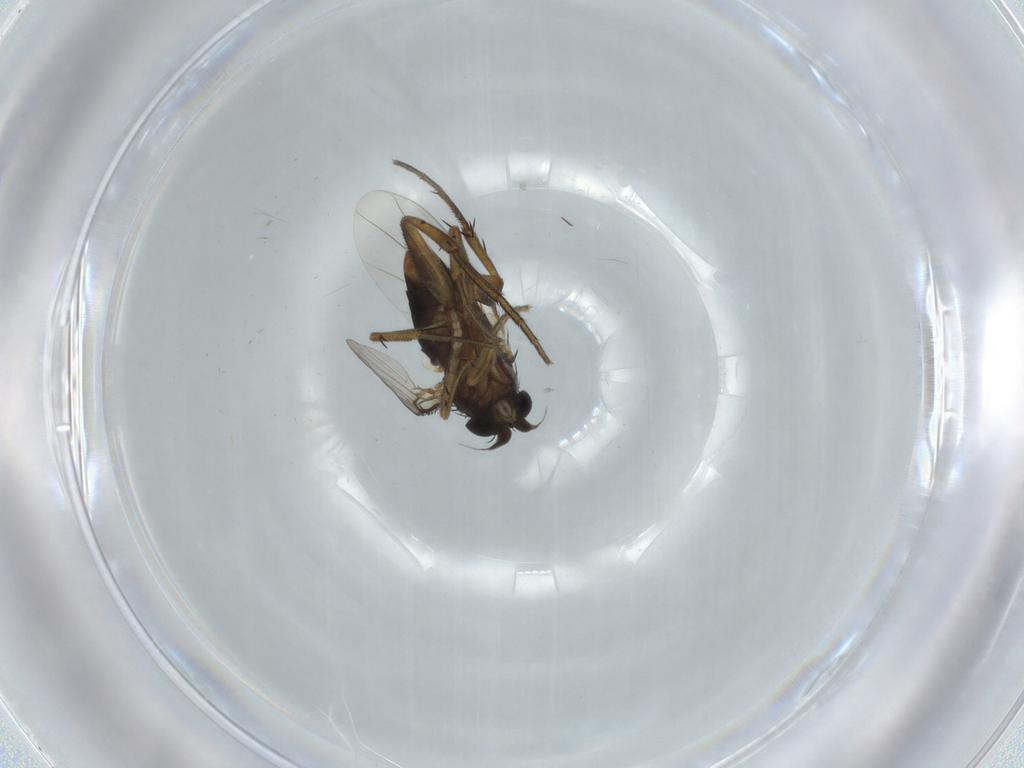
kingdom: Animalia
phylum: Arthropoda
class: Insecta
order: Diptera
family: Phoridae
